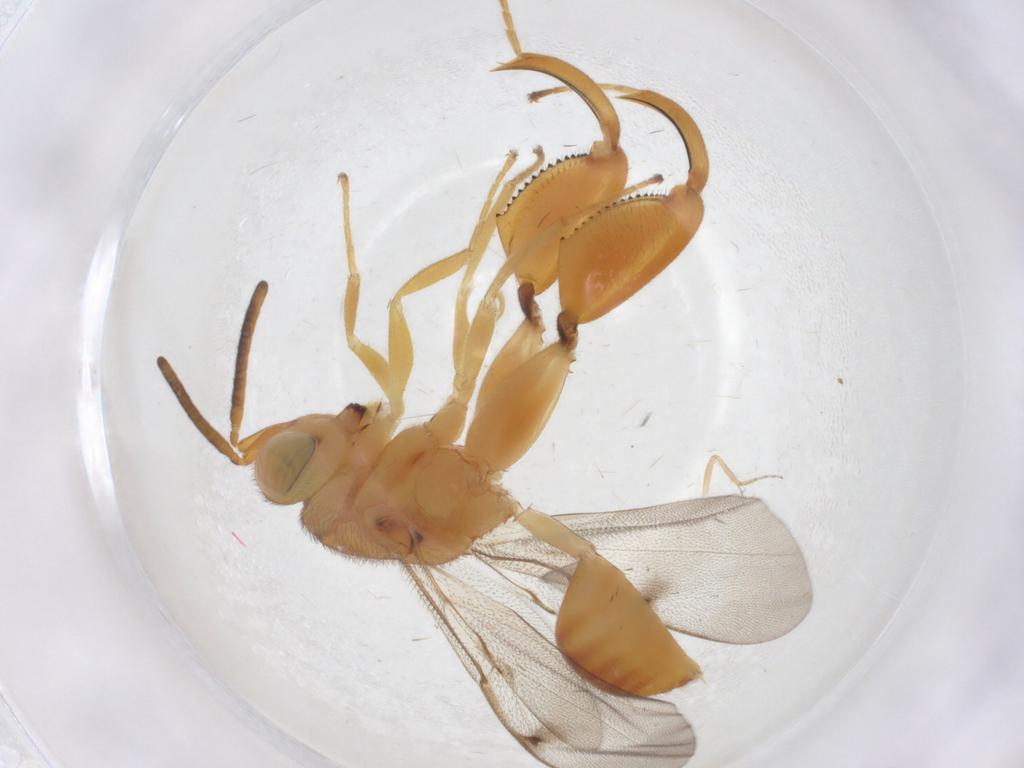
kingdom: Animalia
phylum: Arthropoda
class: Insecta
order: Hymenoptera
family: Chalcididae
